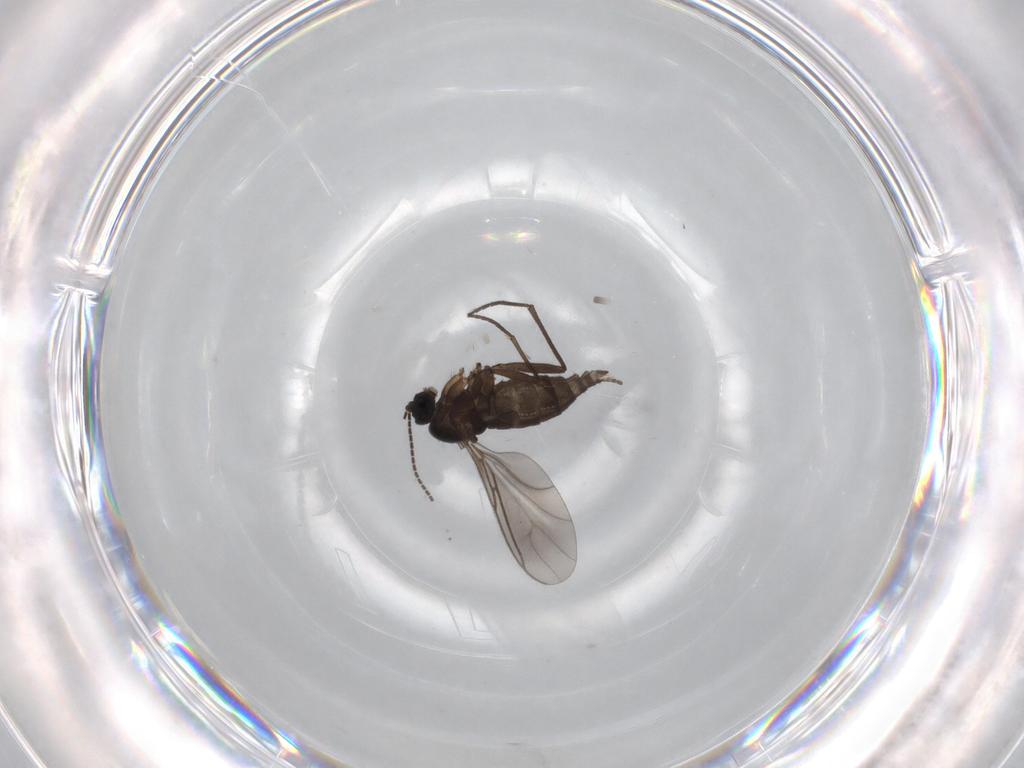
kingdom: Animalia
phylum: Arthropoda
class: Insecta
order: Diptera
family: Sciaridae
